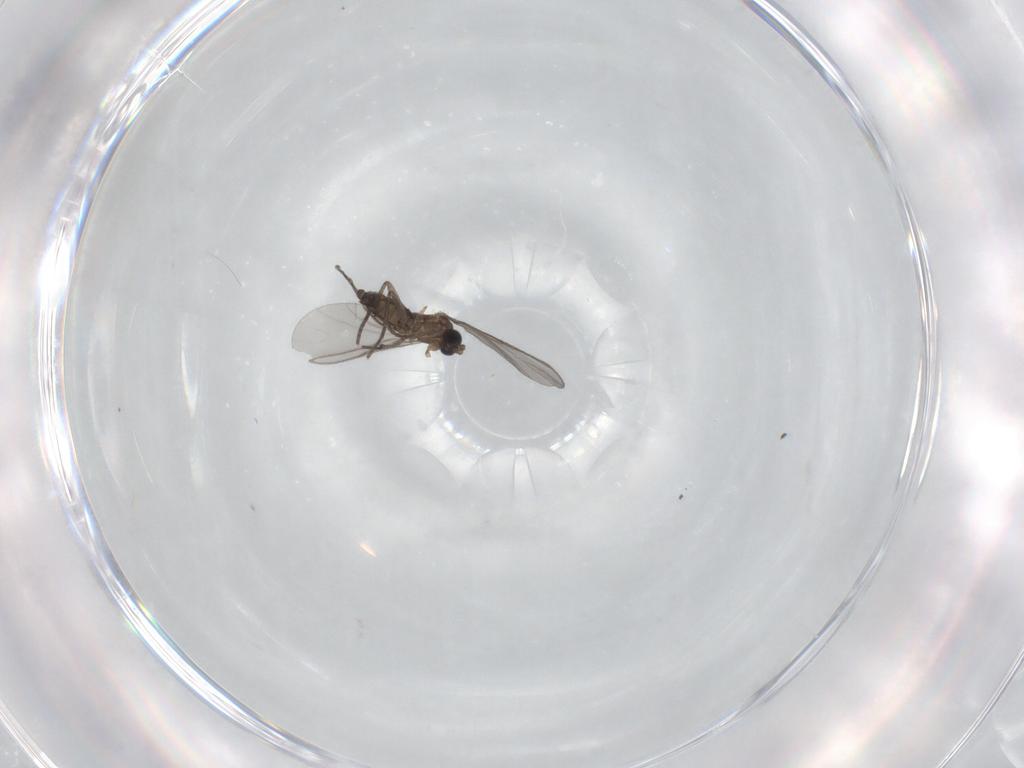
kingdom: Animalia
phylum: Arthropoda
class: Insecta
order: Diptera
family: Sciaridae
